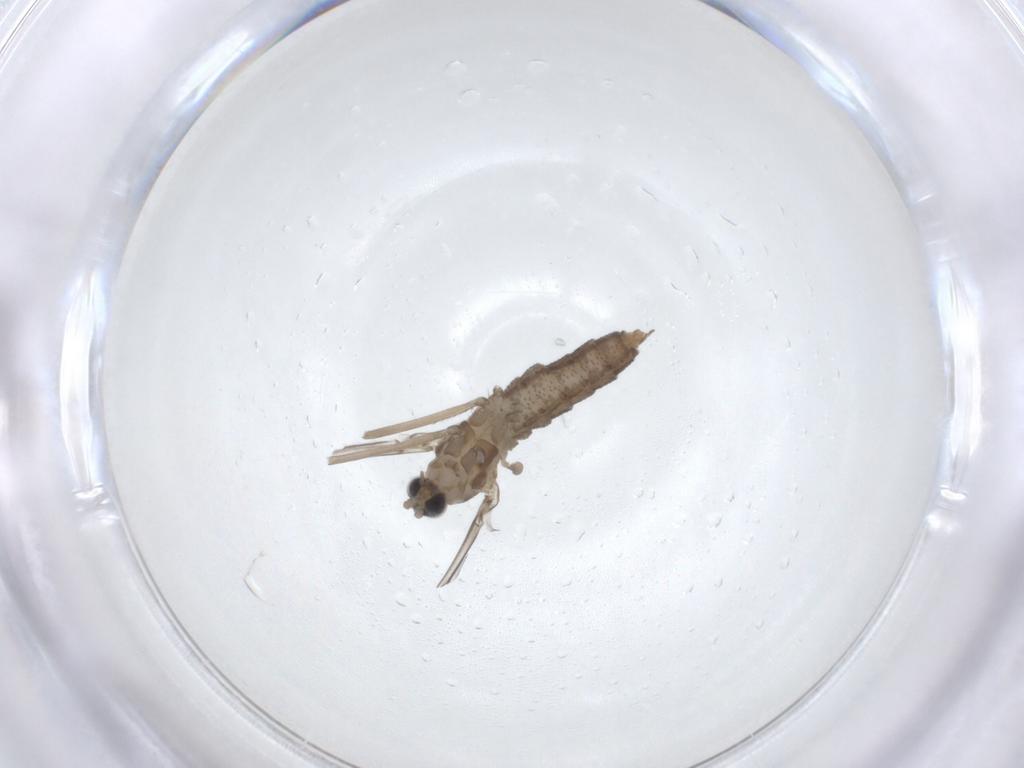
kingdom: Animalia
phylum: Arthropoda
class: Insecta
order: Diptera
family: Cecidomyiidae
